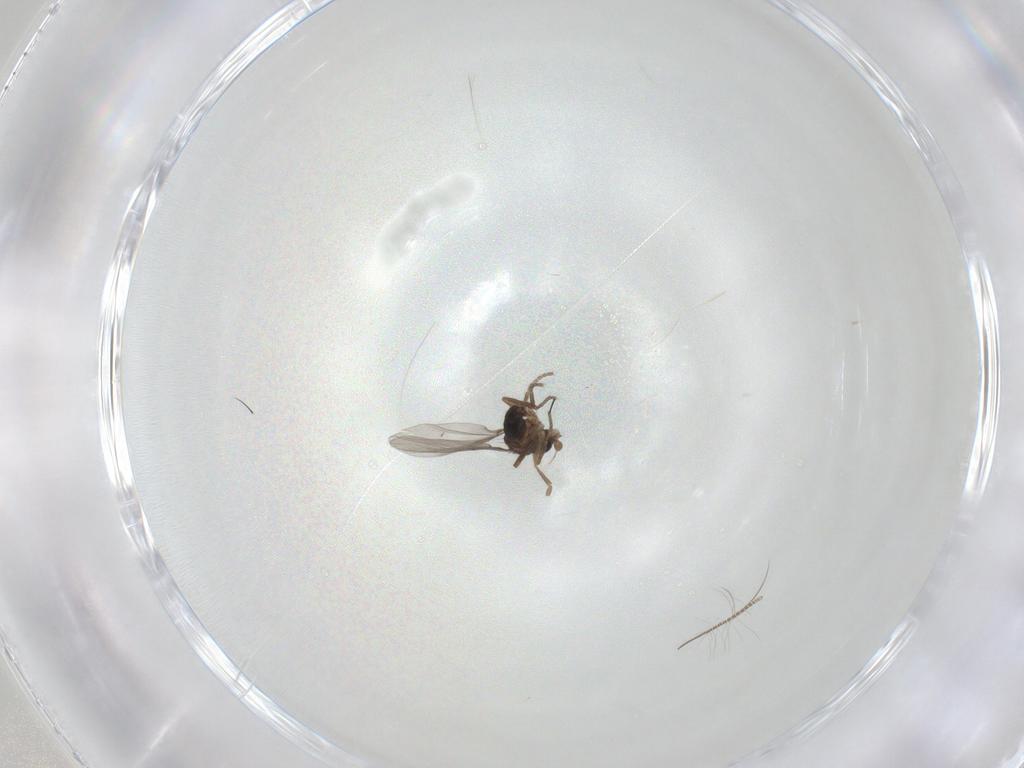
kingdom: Animalia
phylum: Arthropoda
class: Insecta
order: Diptera
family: Phoridae
